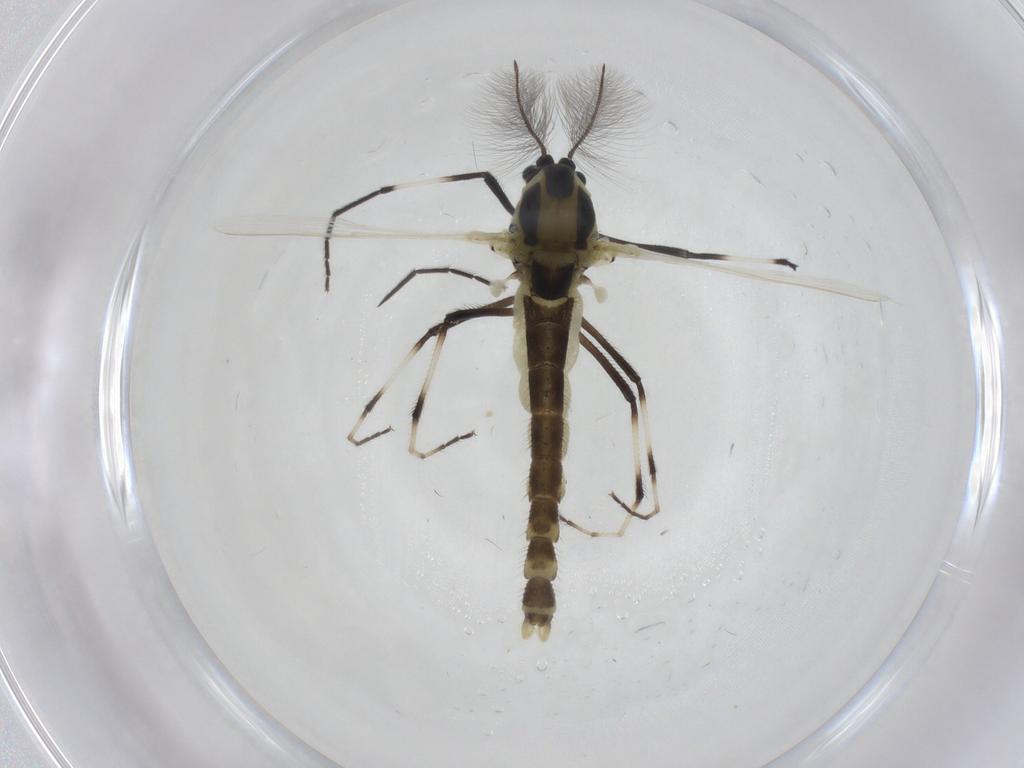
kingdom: Animalia
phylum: Arthropoda
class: Insecta
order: Diptera
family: Chironomidae
